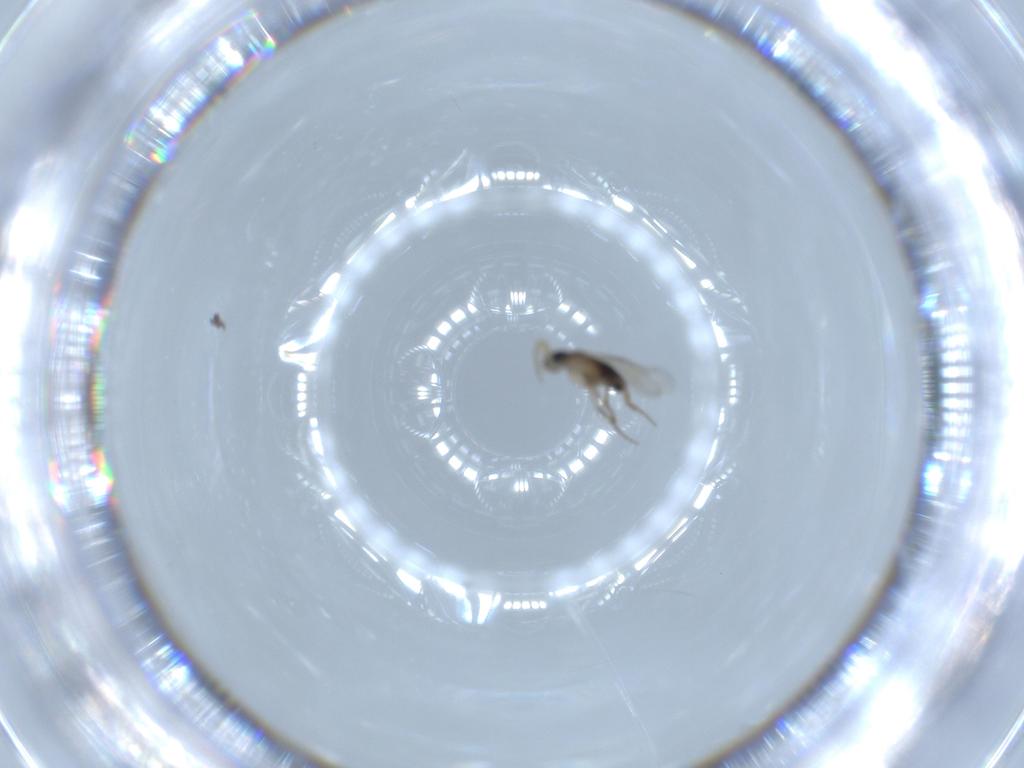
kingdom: Animalia
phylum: Arthropoda
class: Insecta
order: Diptera
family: Phoridae
